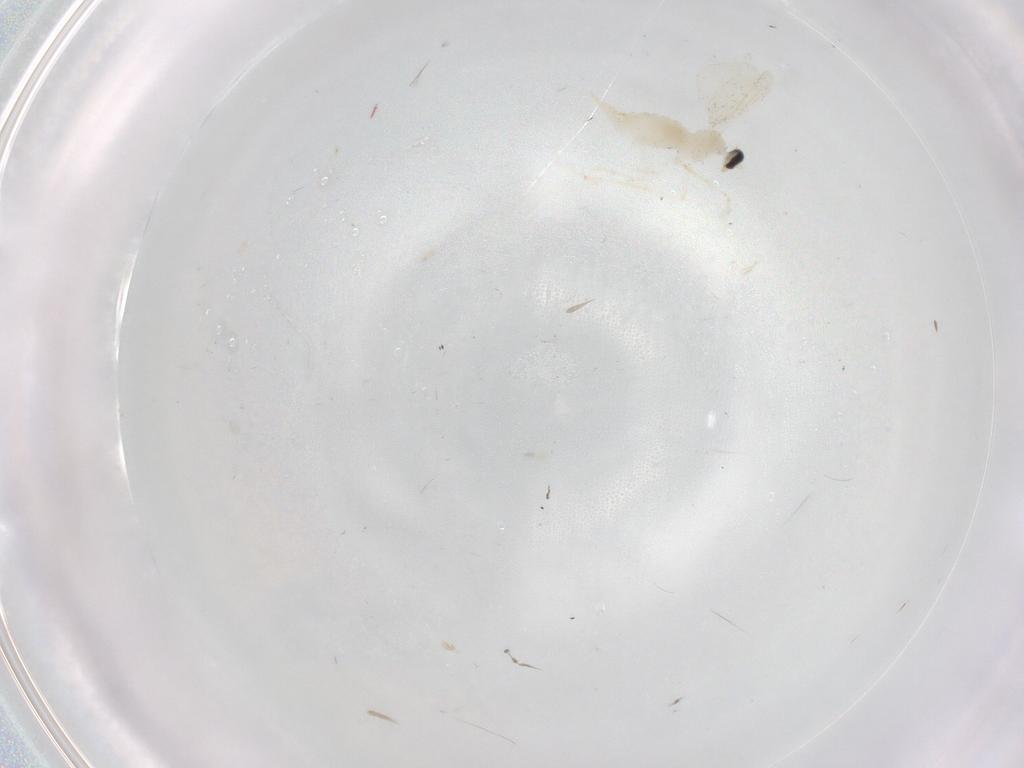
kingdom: Animalia
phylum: Arthropoda
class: Insecta
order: Diptera
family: Cecidomyiidae
